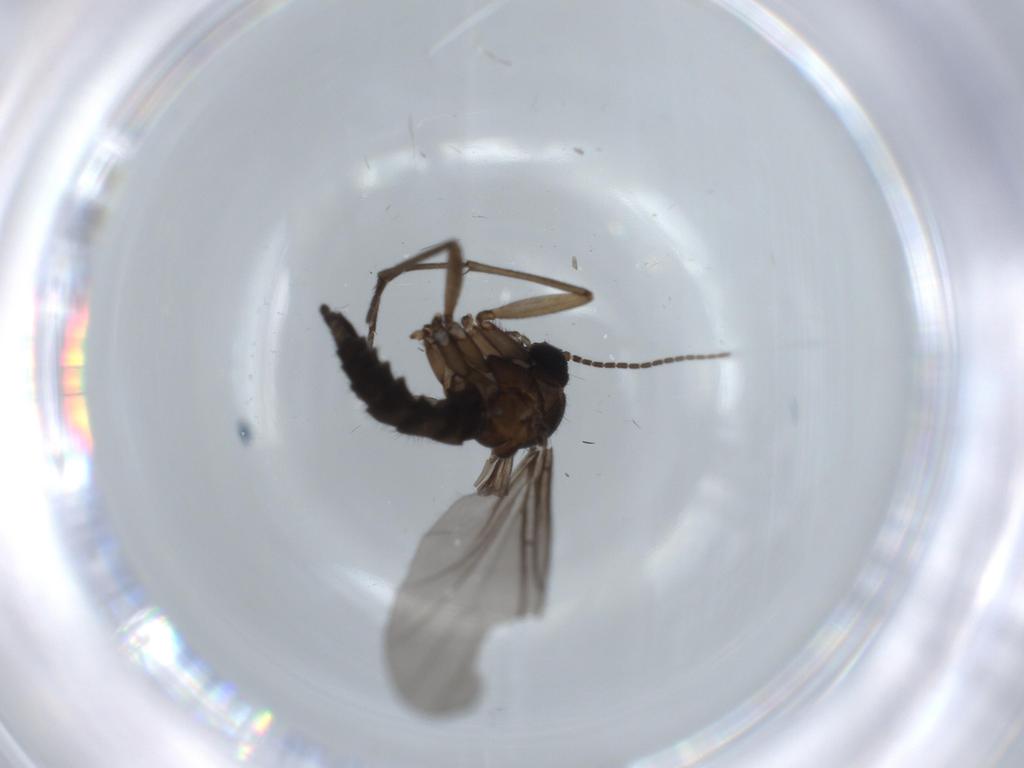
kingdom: Animalia
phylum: Arthropoda
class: Insecta
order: Diptera
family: Sciaridae
